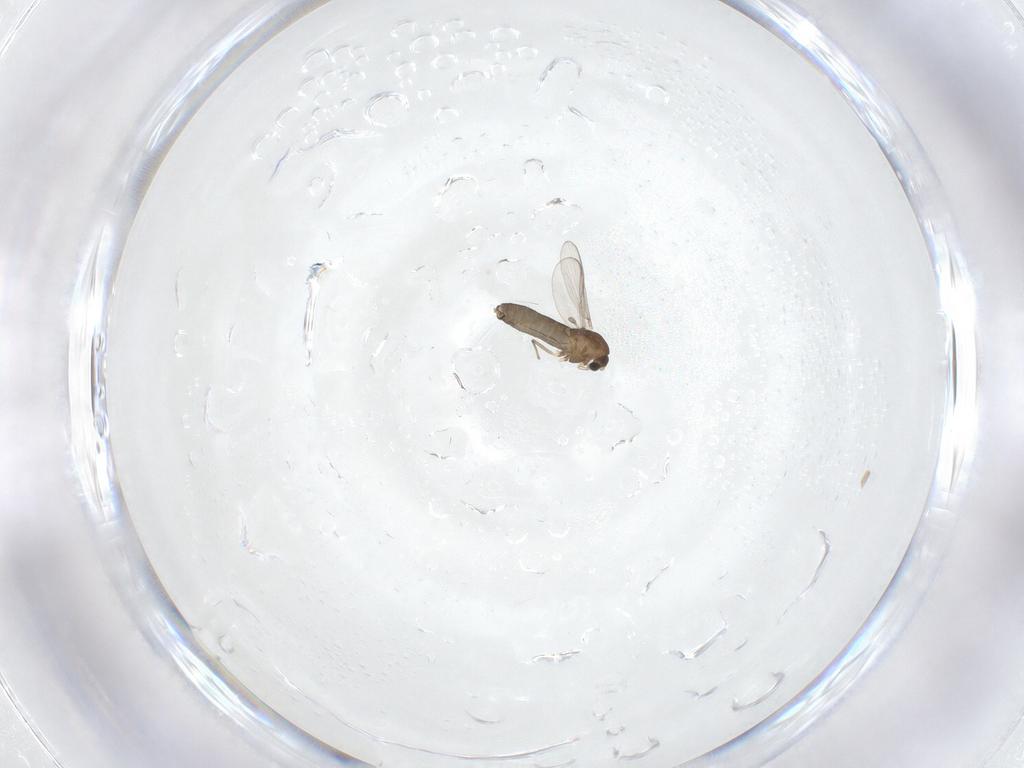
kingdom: Animalia
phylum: Arthropoda
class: Insecta
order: Diptera
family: Chironomidae
